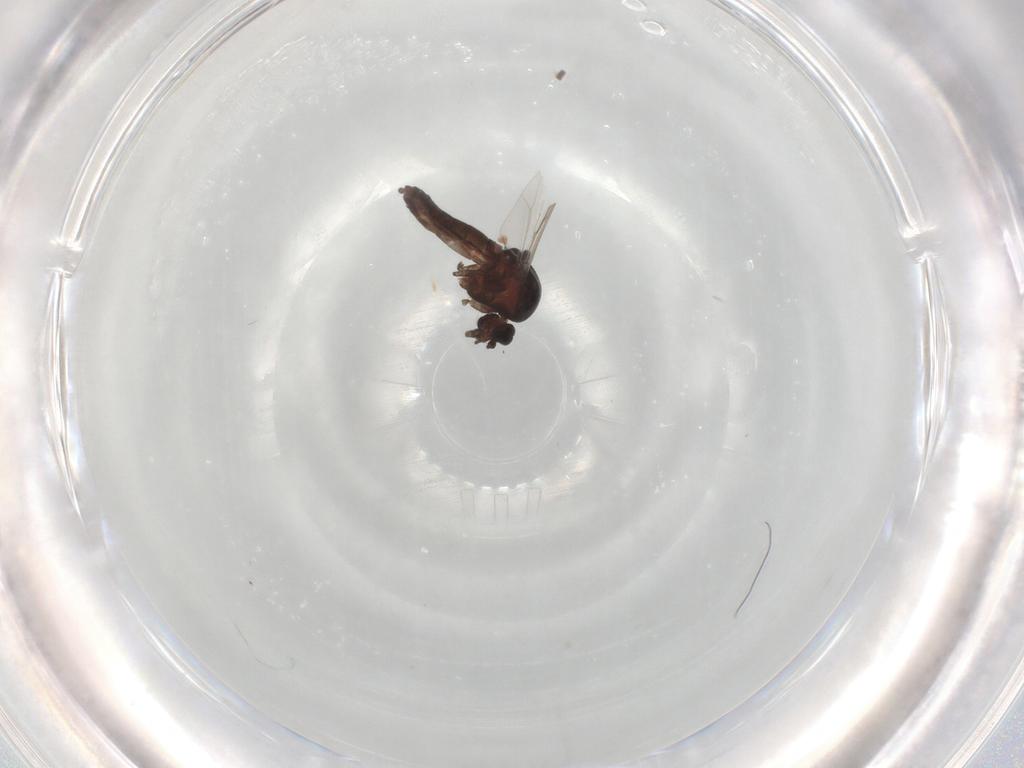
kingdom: Animalia
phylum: Arthropoda
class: Insecta
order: Diptera
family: Ceratopogonidae
